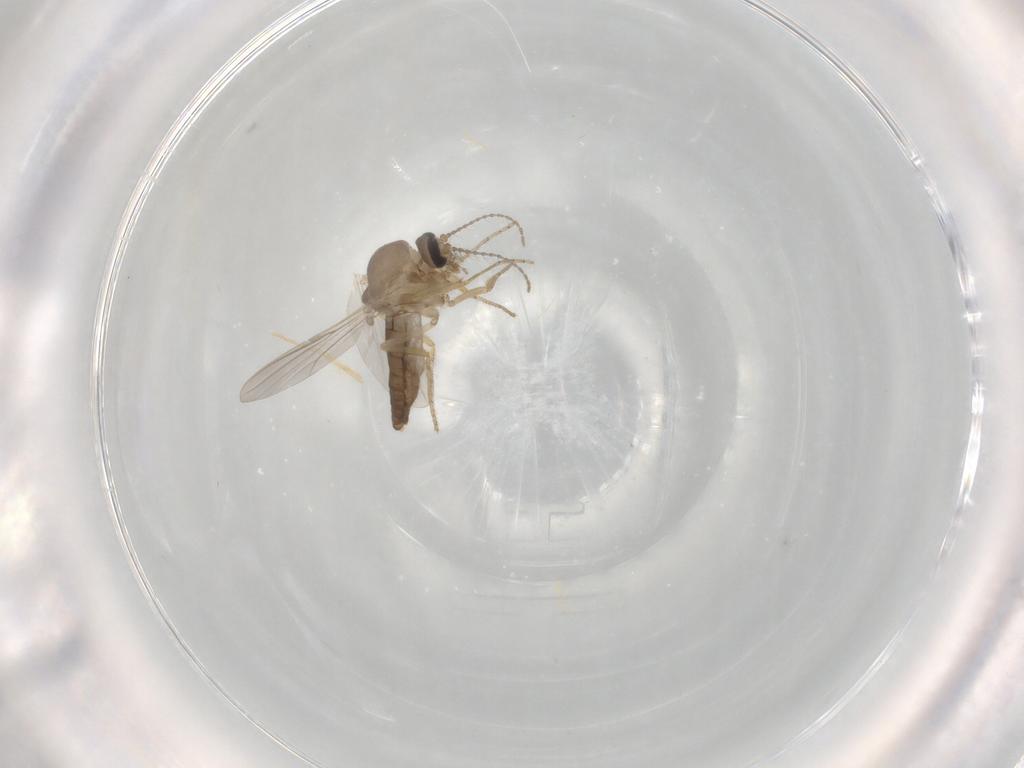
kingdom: Animalia
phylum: Arthropoda
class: Insecta
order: Diptera
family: Ceratopogonidae
